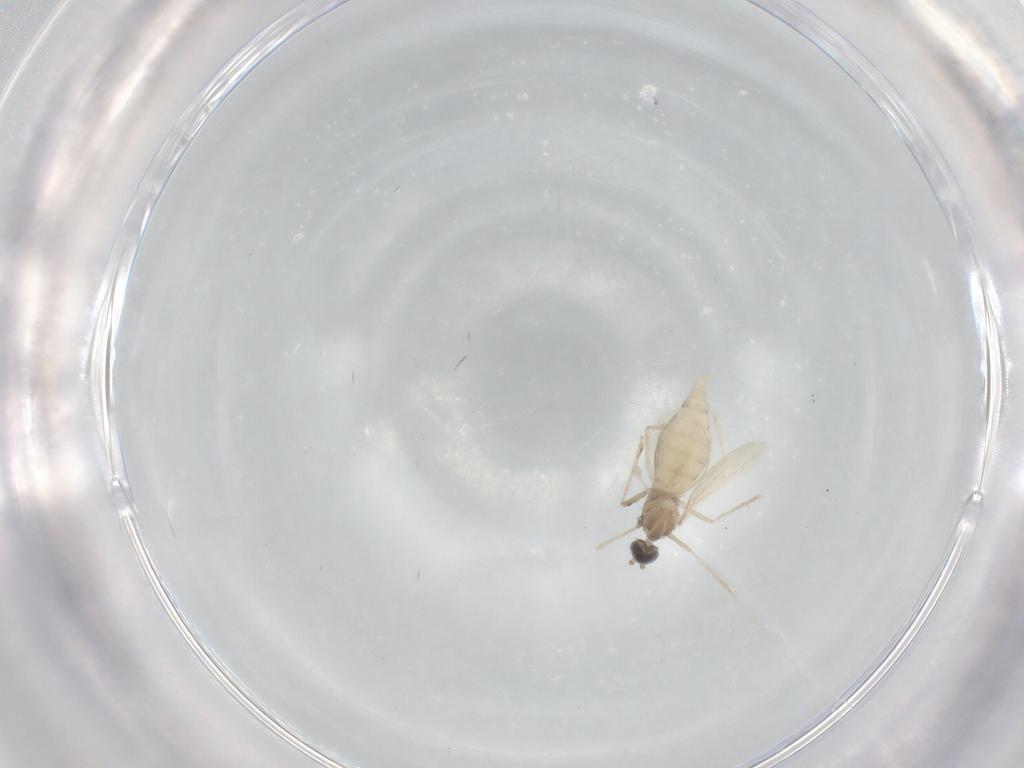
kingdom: Animalia
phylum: Arthropoda
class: Insecta
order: Diptera
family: Cecidomyiidae
